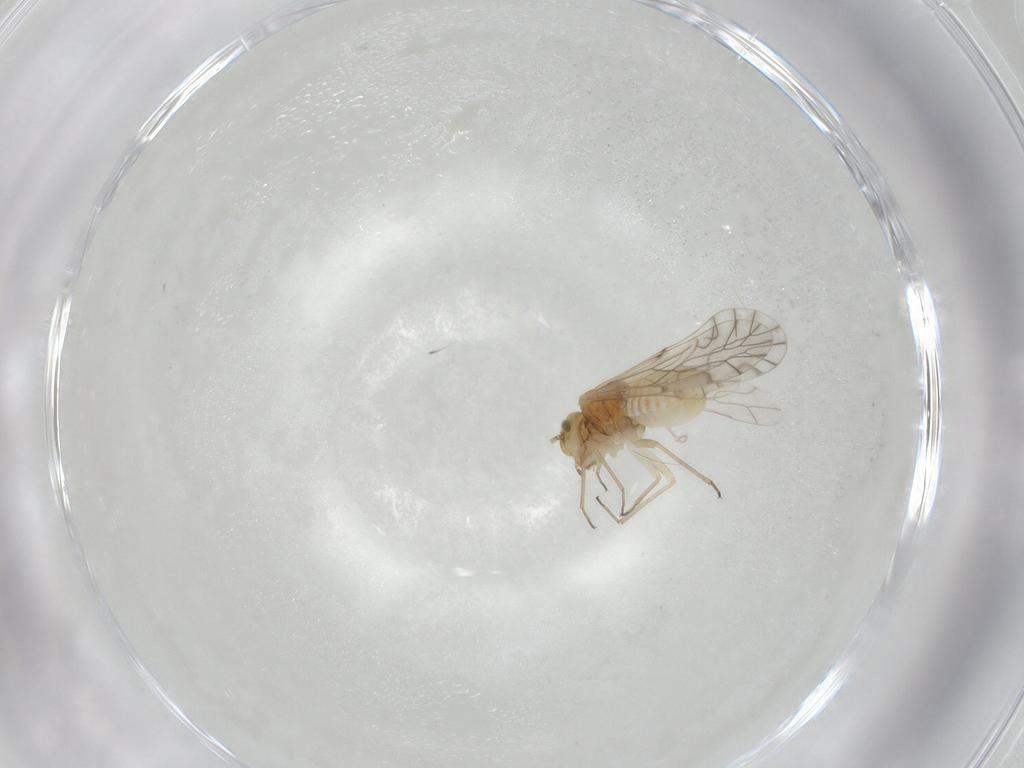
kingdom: Animalia
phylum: Arthropoda
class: Insecta
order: Psocodea
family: Lachesillidae
